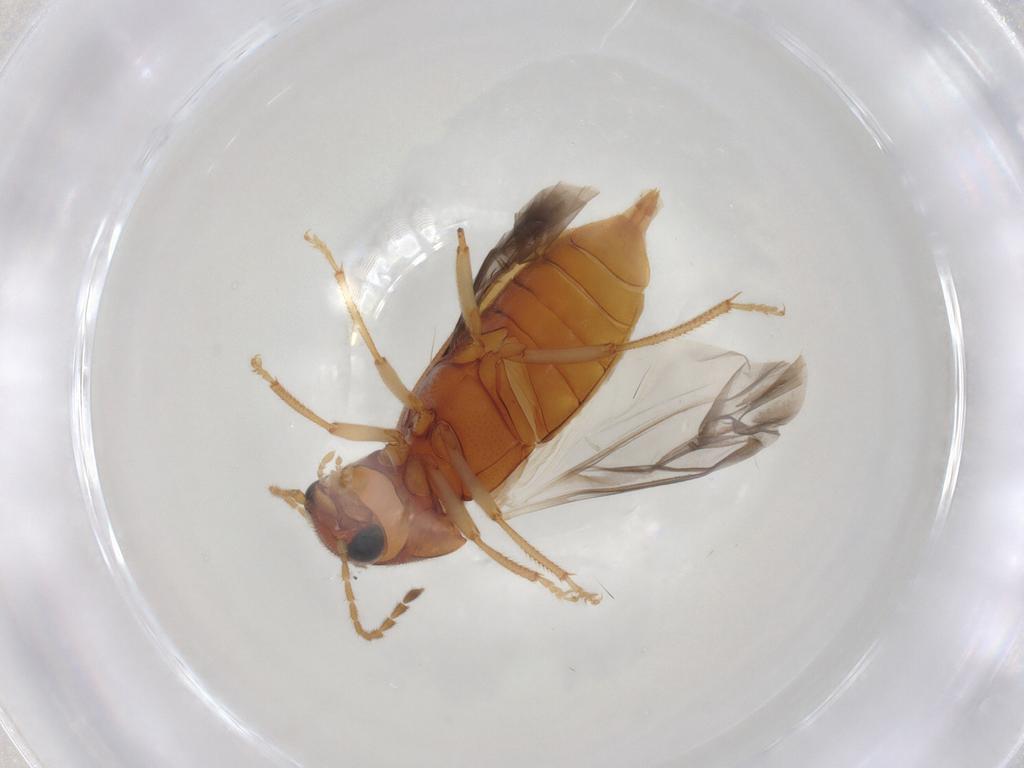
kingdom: Animalia
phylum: Arthropoda
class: Insecta
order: Coleoptera
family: Ptilodactylidae
